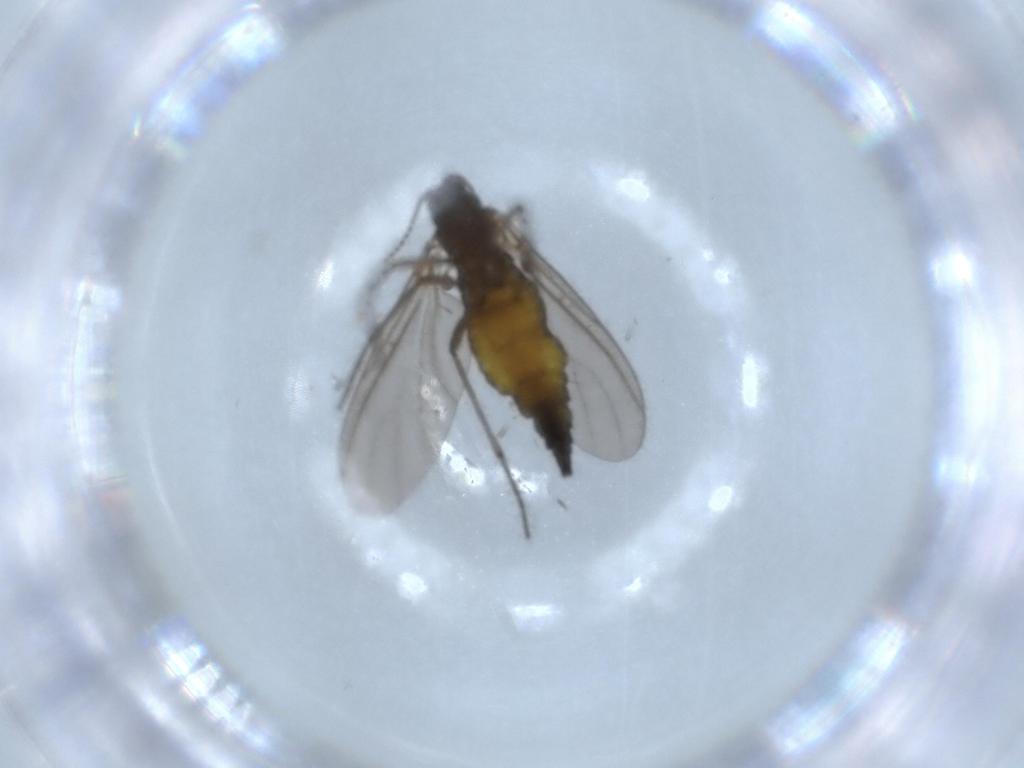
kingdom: Animalia
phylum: Arthropoda
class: Insecta
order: Diptera
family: Sciaridae
